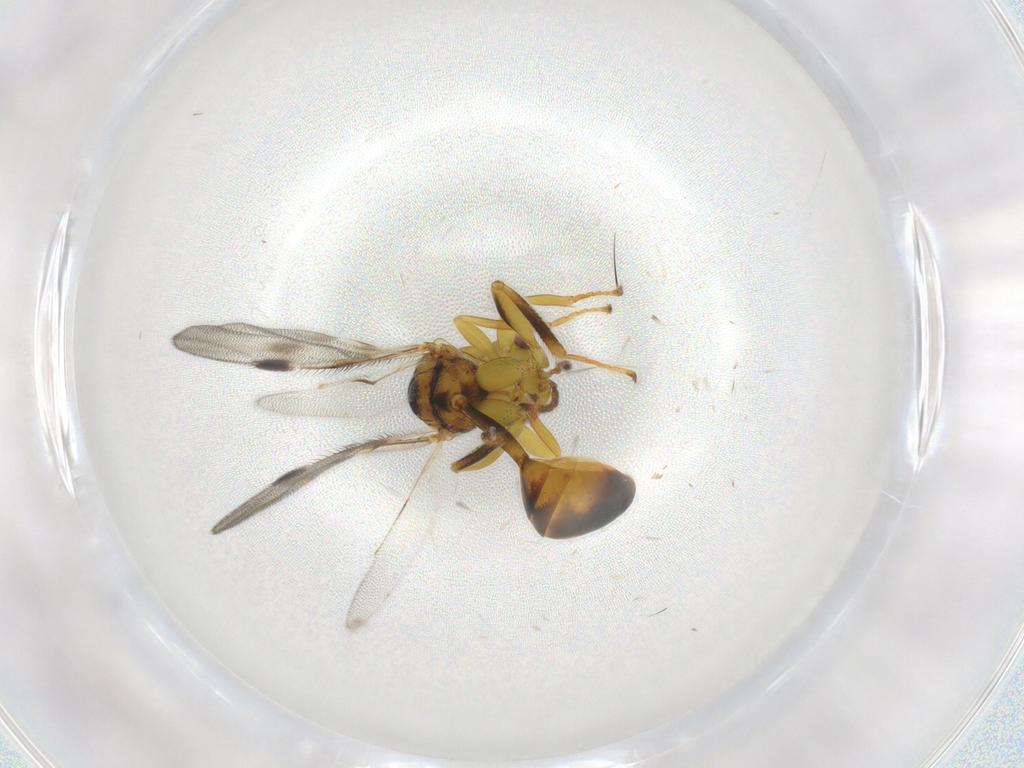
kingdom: Animalia
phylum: Arthropoda
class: Insecta
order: Hymenoptera
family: Eurytomidae
